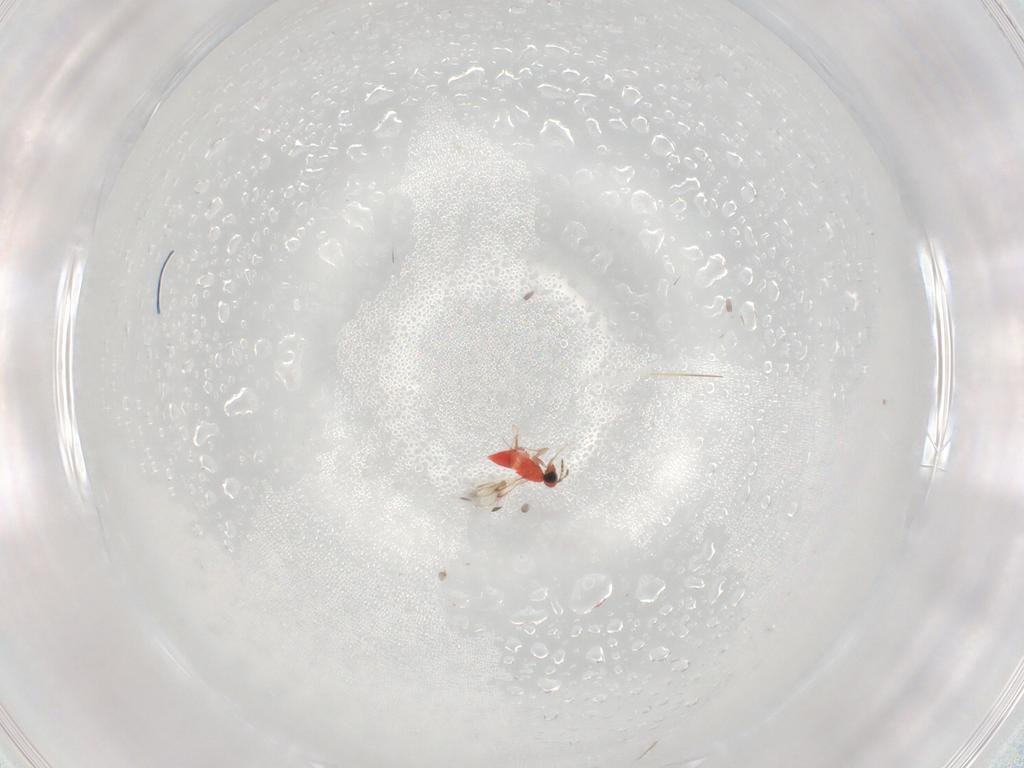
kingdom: Animalia
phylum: Arthropoda
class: Insecta
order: Hymenoptera
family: Trichogrammatidae
